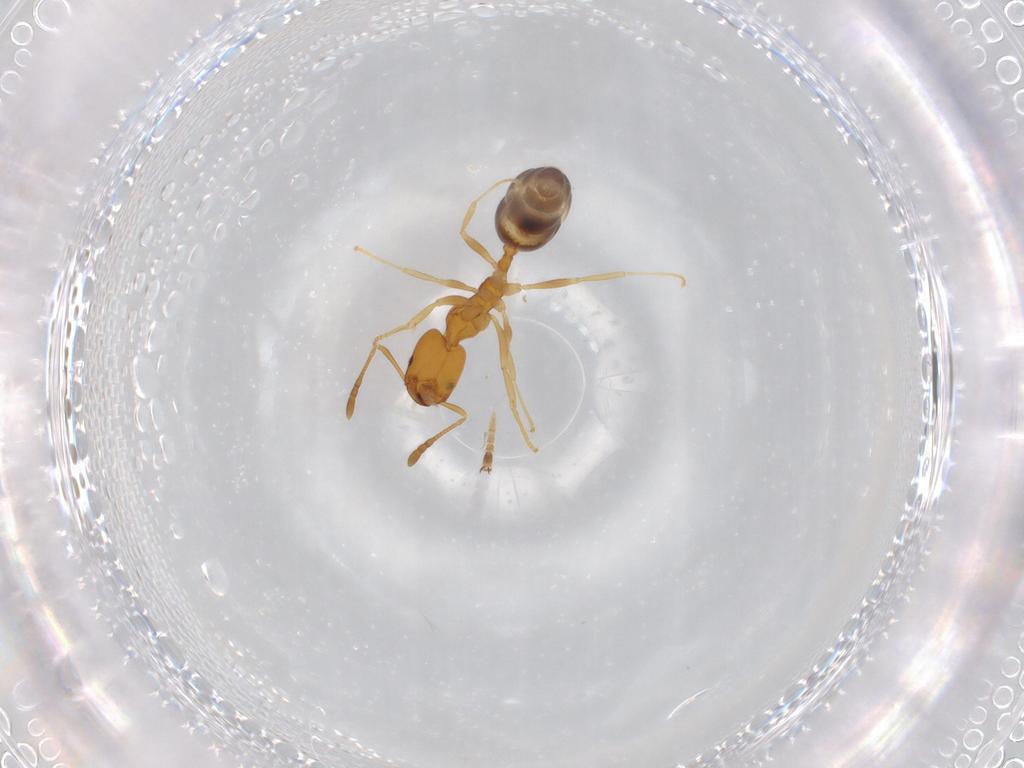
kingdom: Animalia
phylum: Arthropoda
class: Insecta
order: Hymenoptera
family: Formicidae
